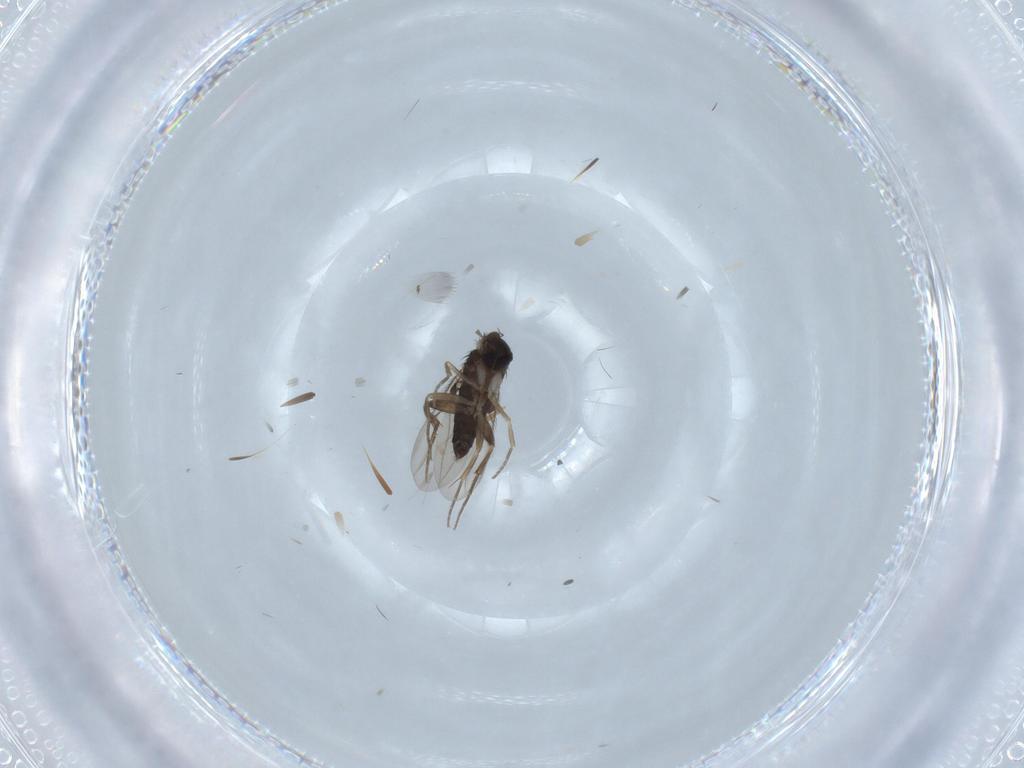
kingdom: Animalia
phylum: Arthropoda
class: Insecta
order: Diptera
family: Phoridae
